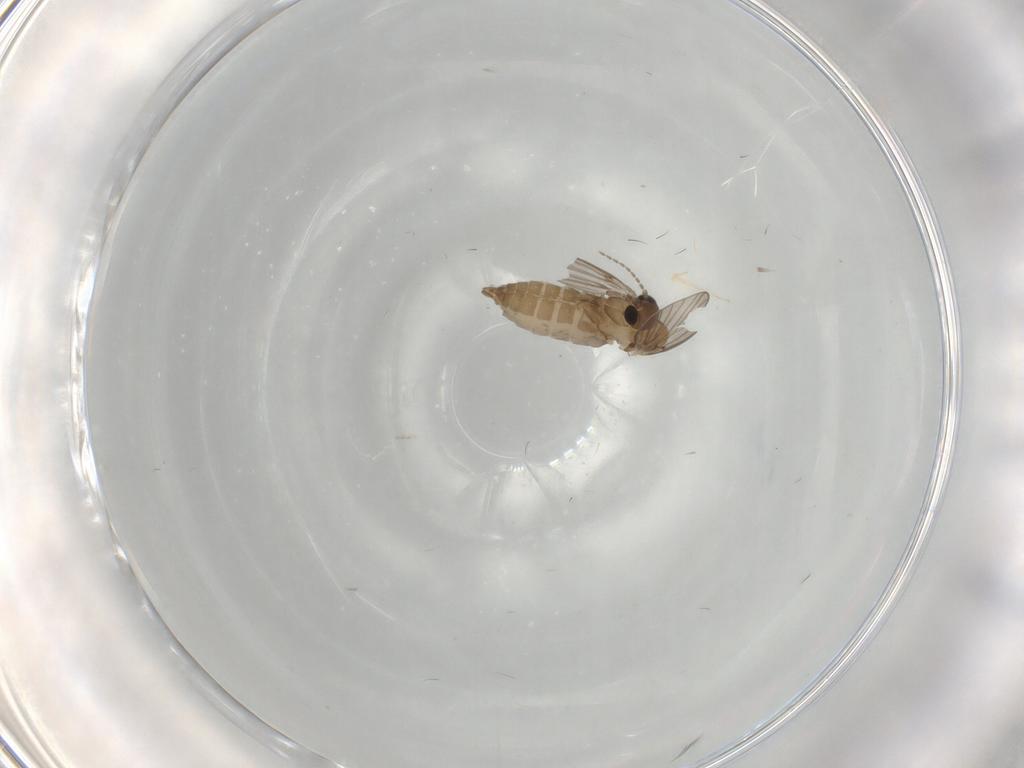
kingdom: Animalia
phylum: Arthropoda
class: Insecta
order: Diptera
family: Psychodidae
